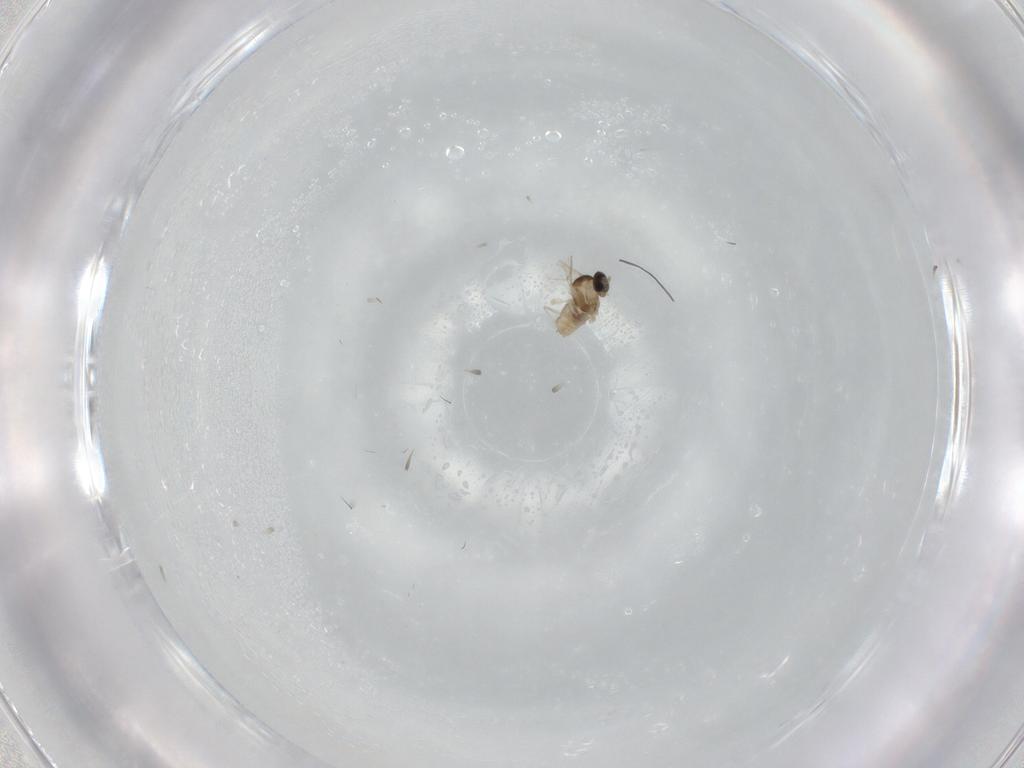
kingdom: Animalia
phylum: Arthropoda
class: Insecta
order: Diptera
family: Cecidomyiidae
